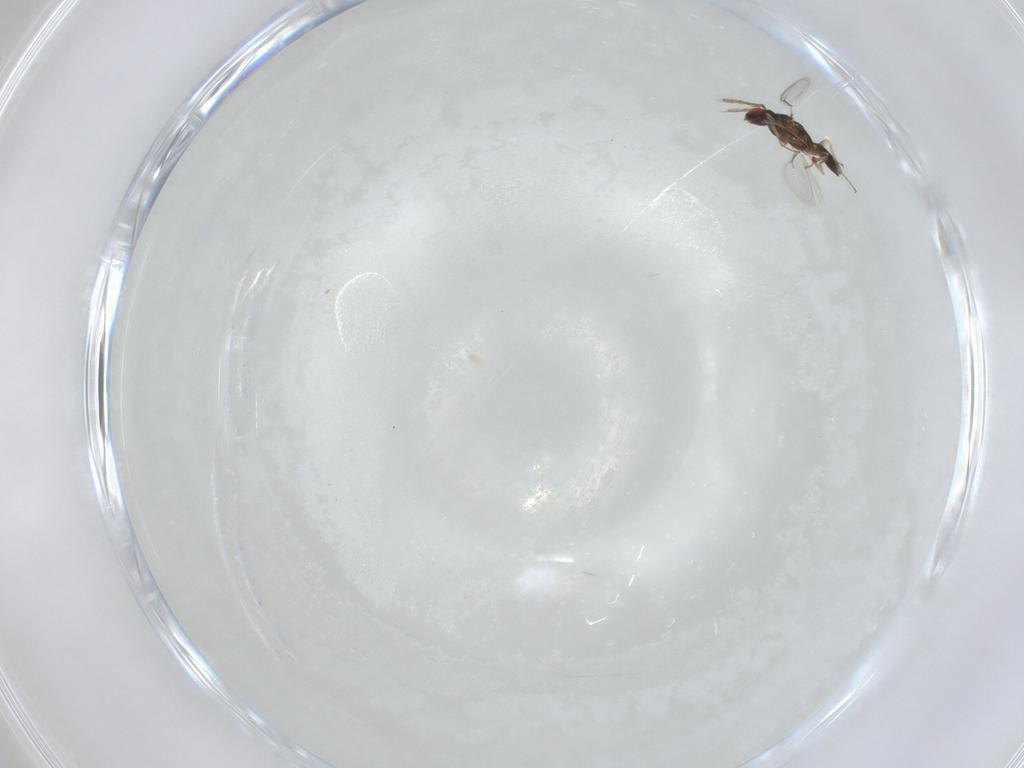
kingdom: Animalia
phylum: Arthropoda
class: Insecta
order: Hymenoptera
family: Eulophidae
